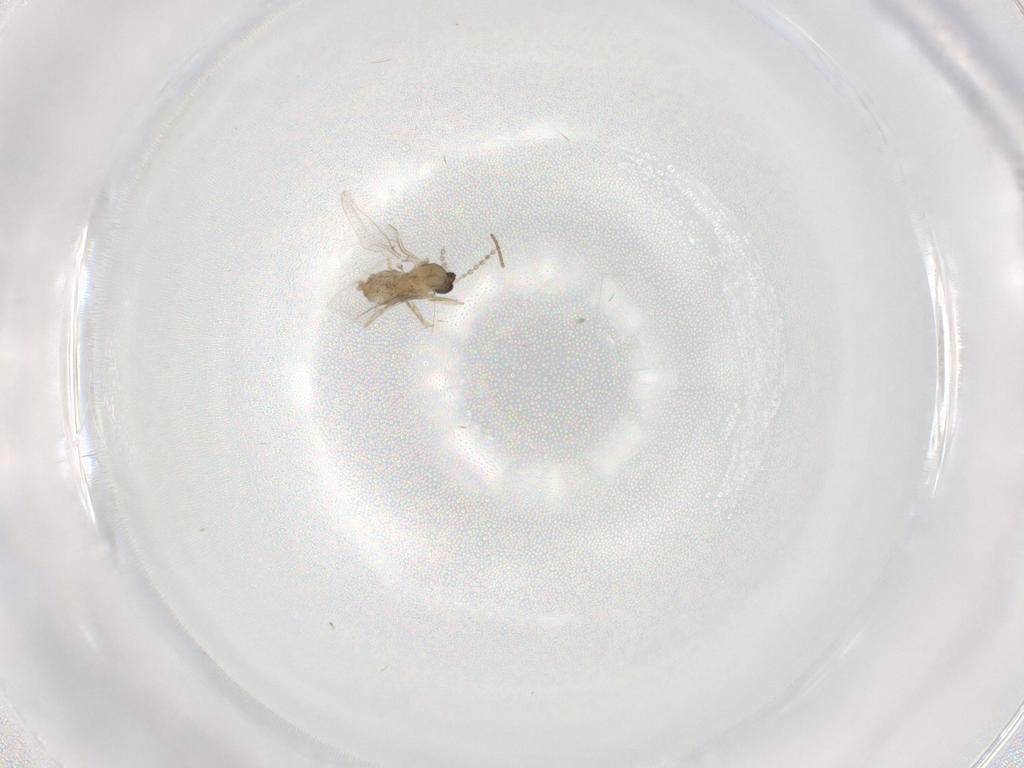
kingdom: Animalia
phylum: Arthropoda
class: Insecta
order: Diptera
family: Cecidomyiidae
